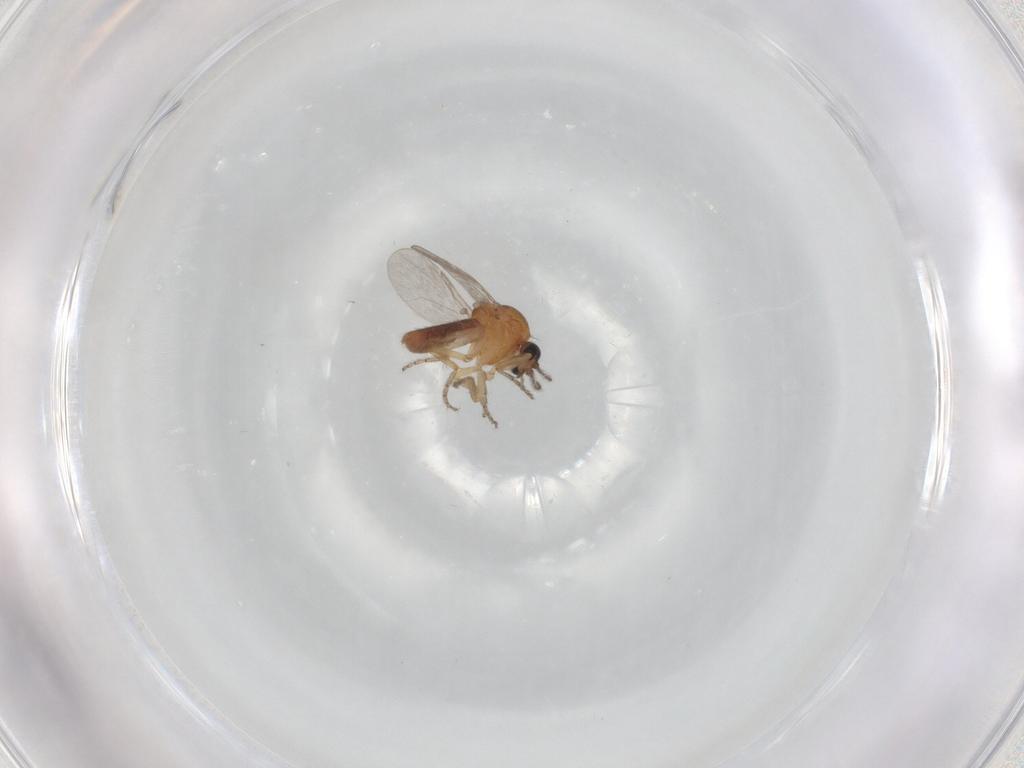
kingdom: Animalia
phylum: Arthropoda
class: Insecta
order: Diptera
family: Ceratopogonidae
